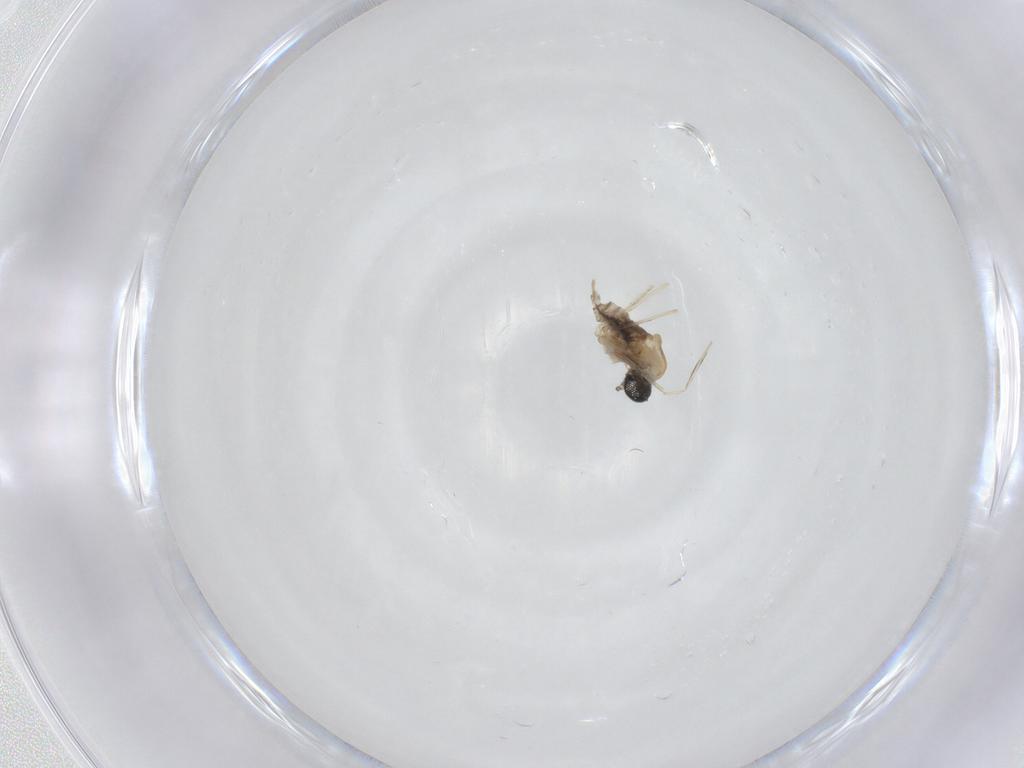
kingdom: Animalia
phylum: Arthropoda
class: Insecta
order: Diptera
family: Cecidomyiidae
